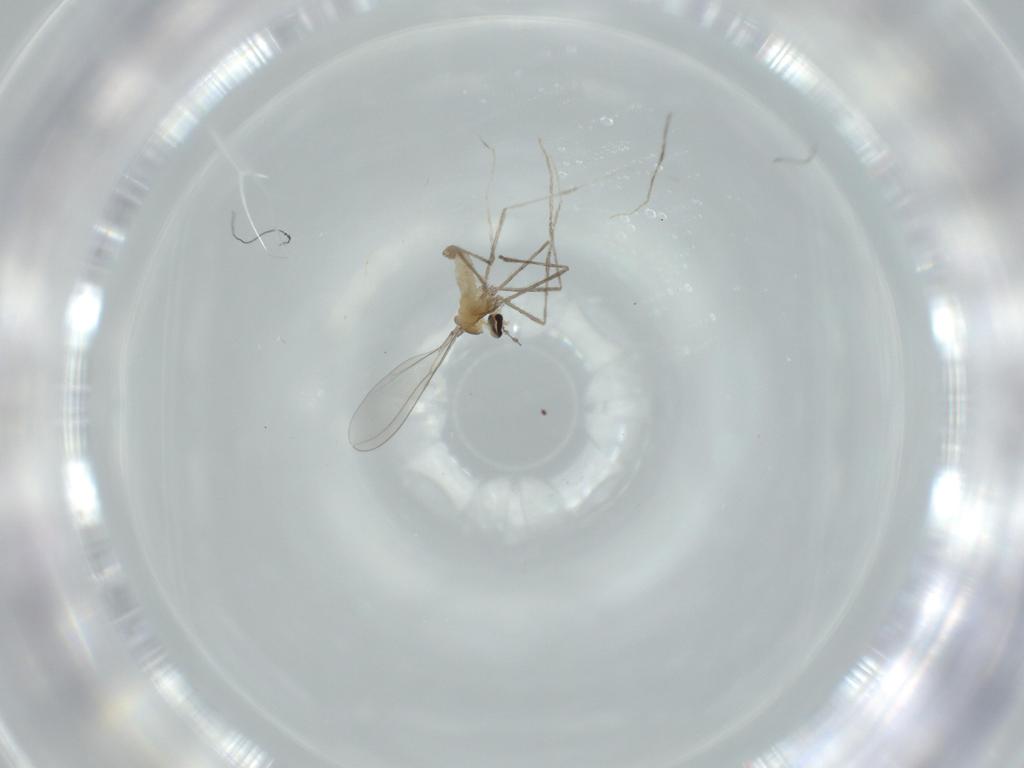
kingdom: Animalia
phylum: Arthropoda
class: Insecta
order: Diptera
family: Cecidomyiidae
